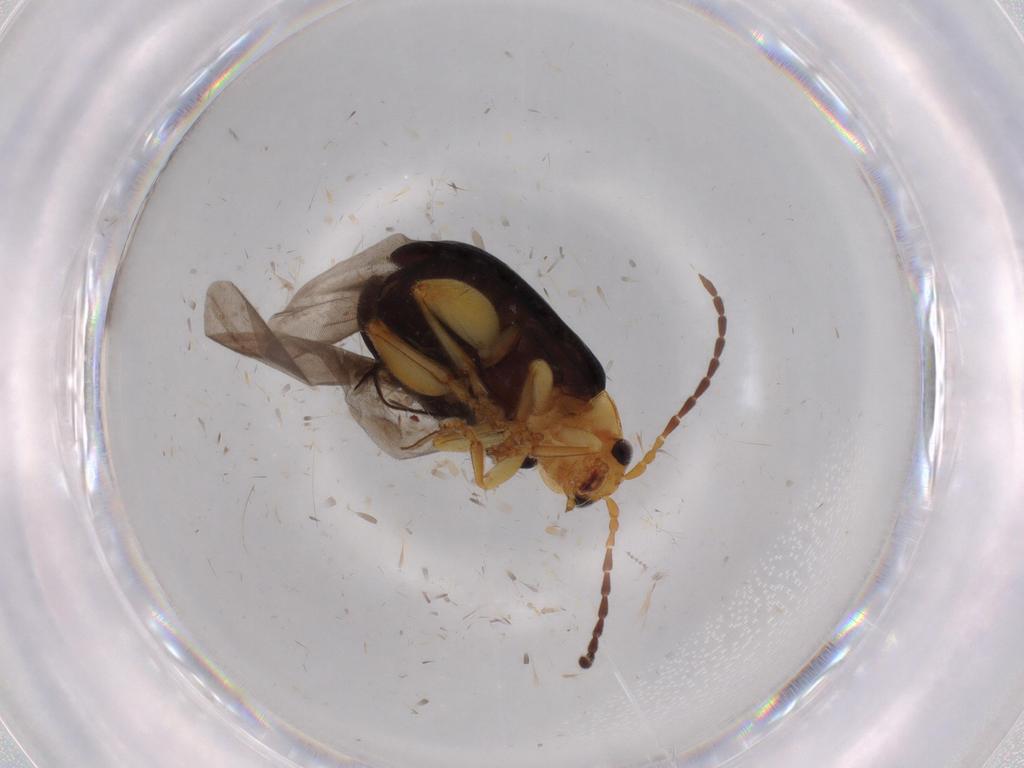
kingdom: Animalia
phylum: Arthropoda
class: Insecta
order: Coleoptera
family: Chrysomelidae
